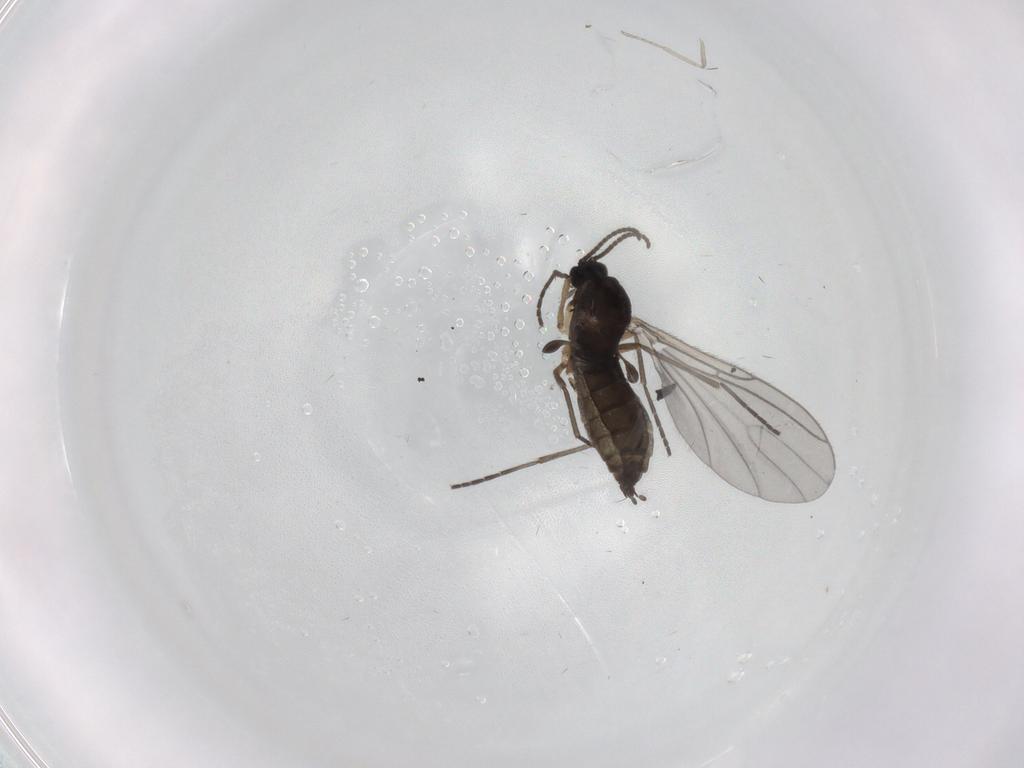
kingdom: Animalia
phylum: Arthropoda
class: Insecta
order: Diptera
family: Sciaridae
